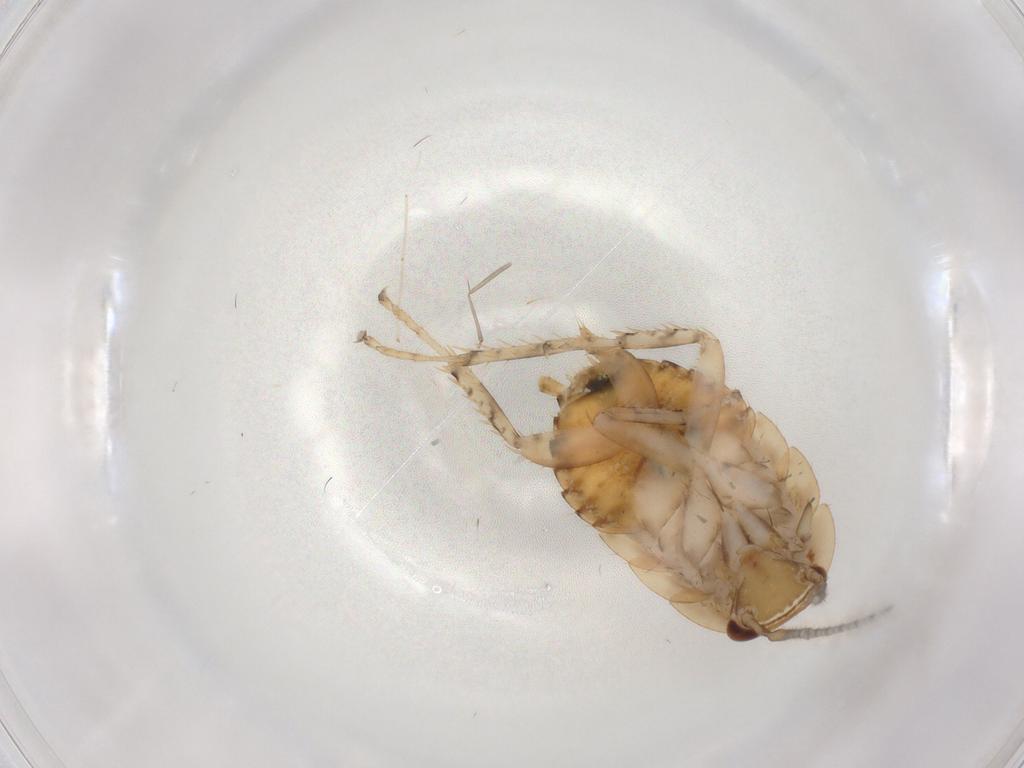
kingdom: Animalia
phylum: Arthropoda
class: Insecta
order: Blattodea
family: Ectobiidae
